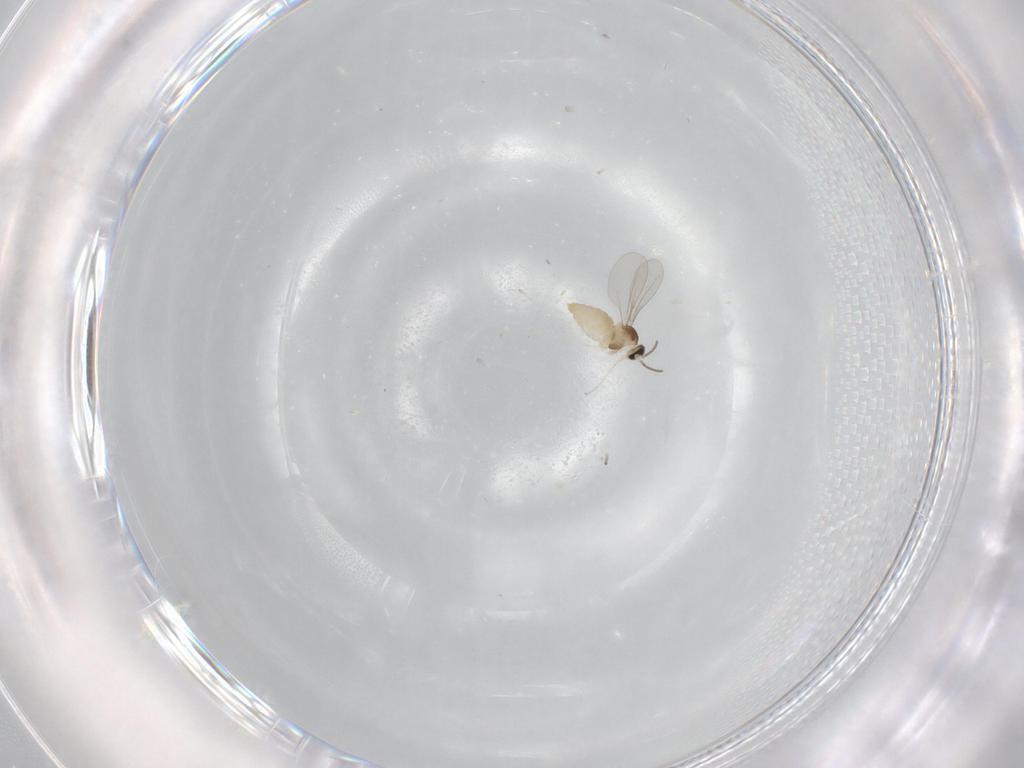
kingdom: Animalia
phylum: Arthropoda
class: Insecta
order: Diptera
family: Cecidomyiidae
